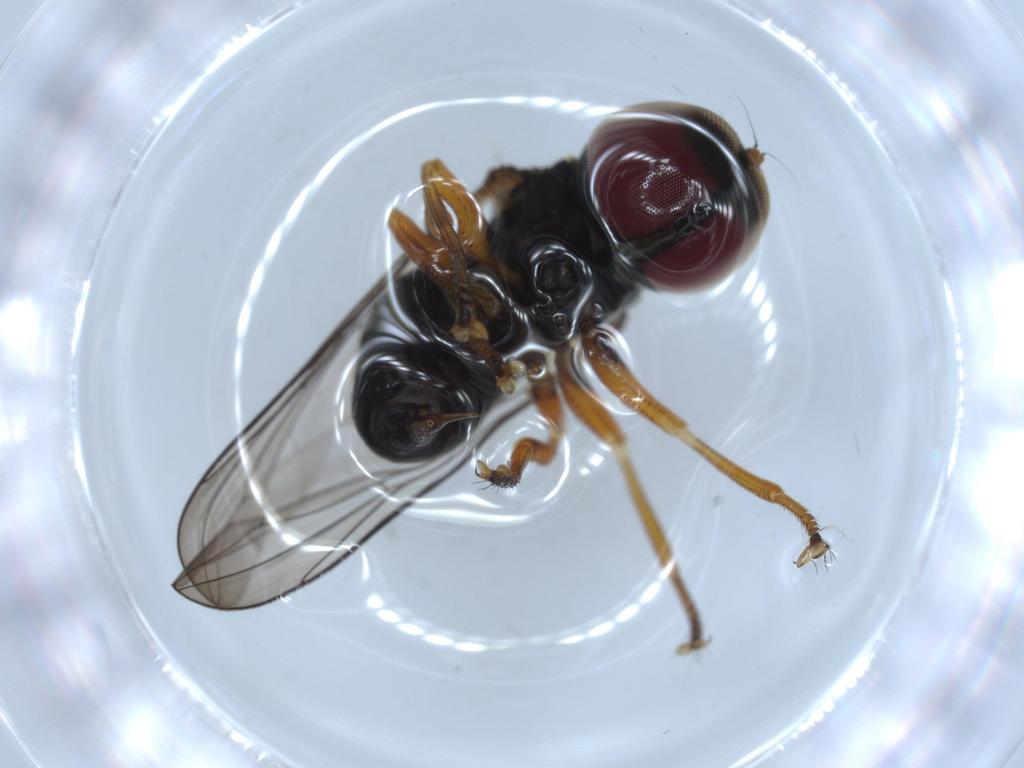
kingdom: Animalia
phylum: Arthropoda
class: Insecta
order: Diptera
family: Pipunculidae
